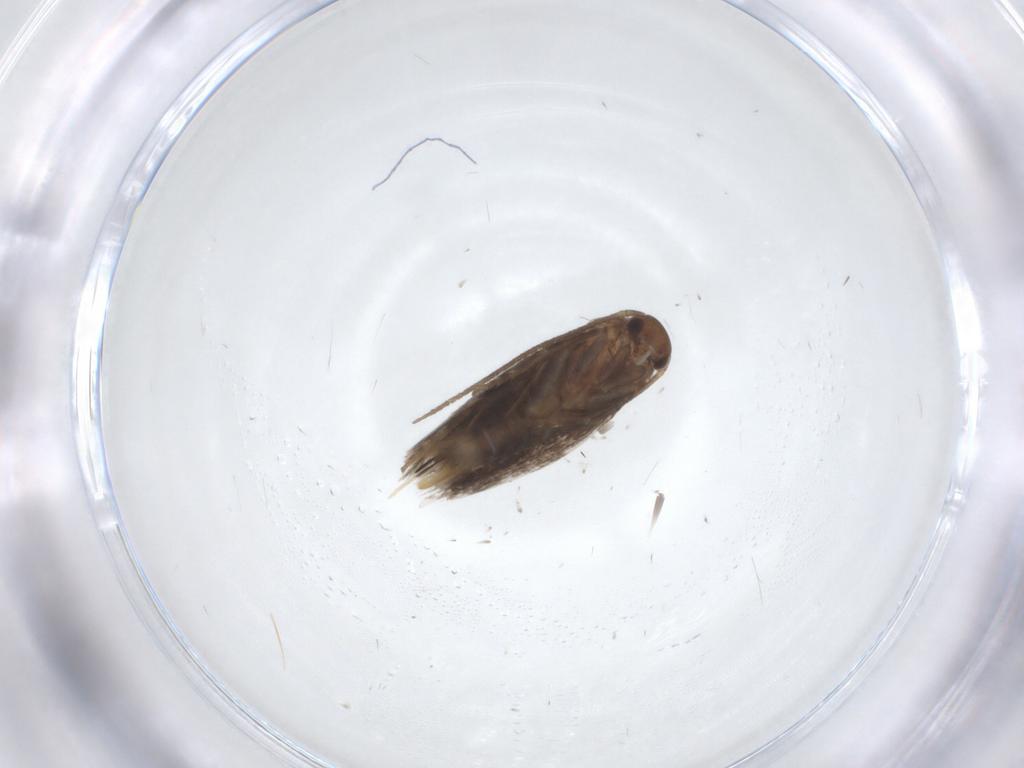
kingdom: Animalia
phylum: Arthropoda
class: Insecta
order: Lepidoptera
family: Elachistidae
